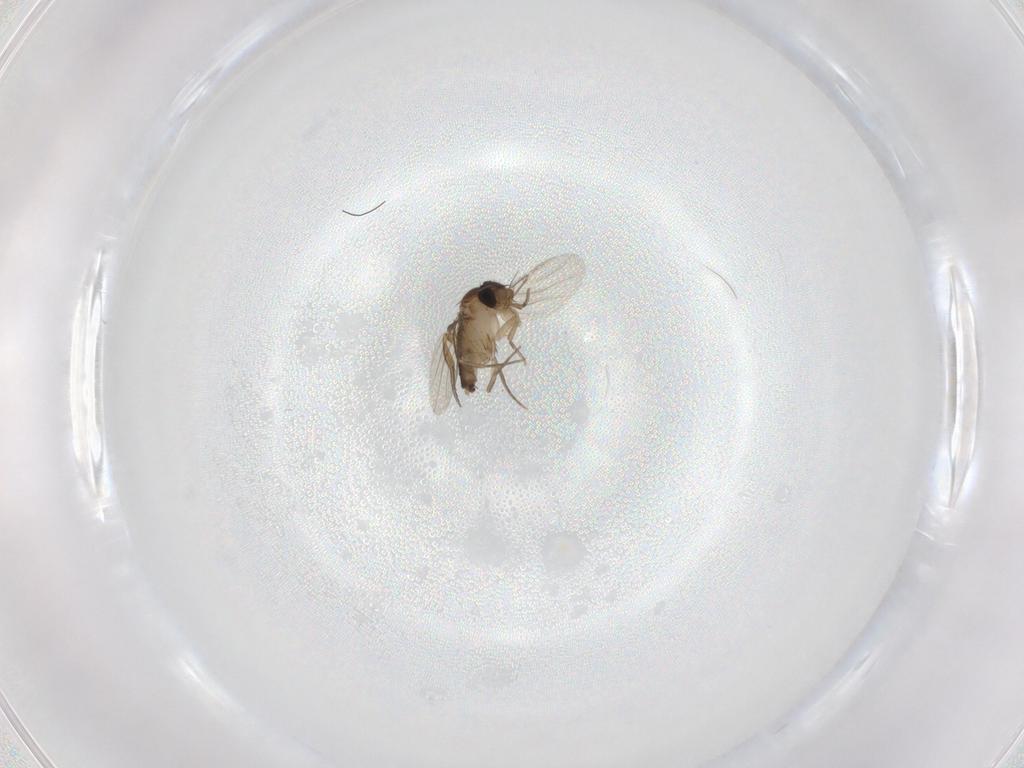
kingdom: Animalia
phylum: Arthropoda
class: Insecta
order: Diptera
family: Phoridae
